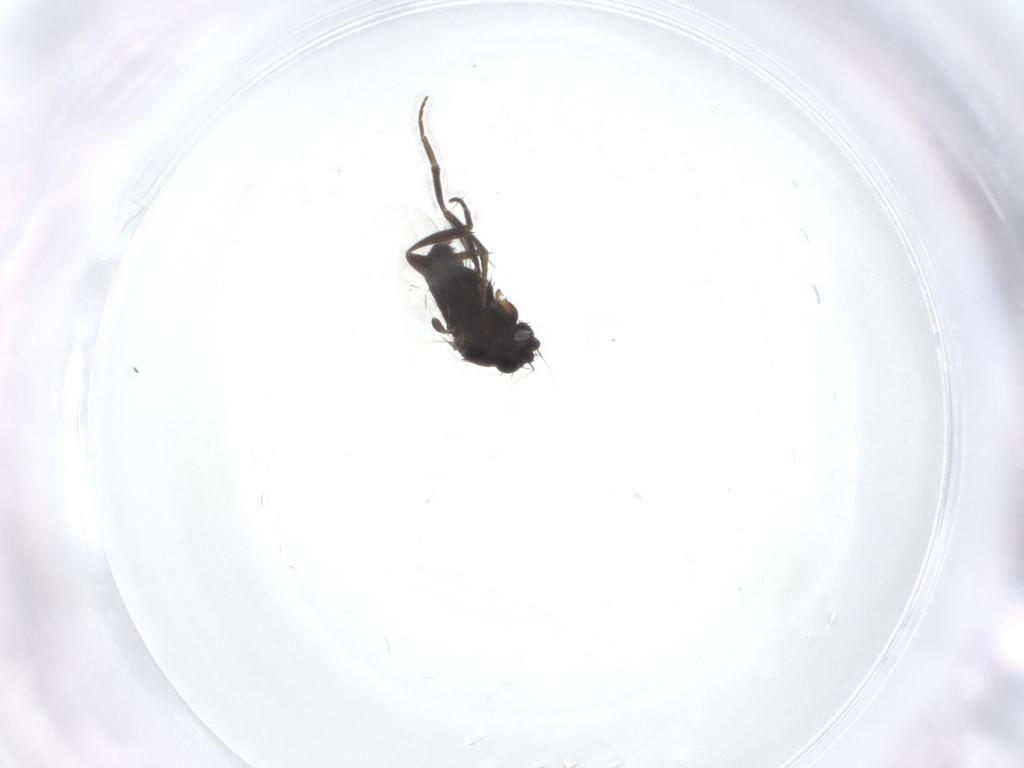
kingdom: Animalia
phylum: Arthropoda
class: Insecta
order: Diptera
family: Phoridae
